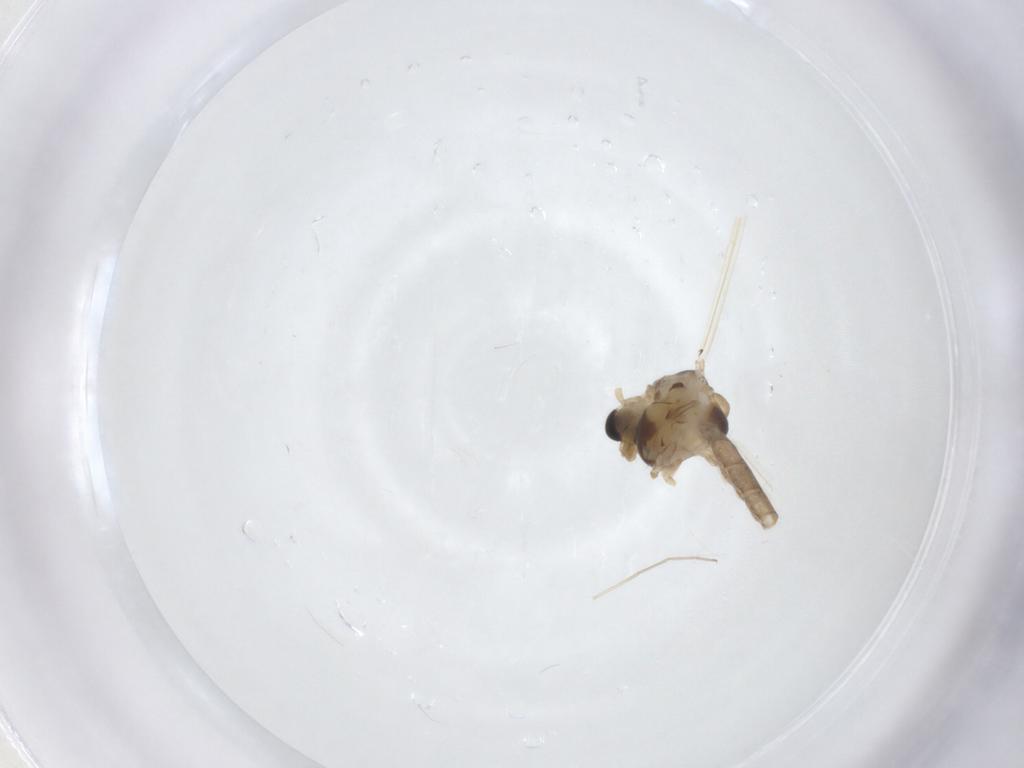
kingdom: Animalia
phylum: Arthropoda
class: Insecta
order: Diptera
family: Chironomidae
